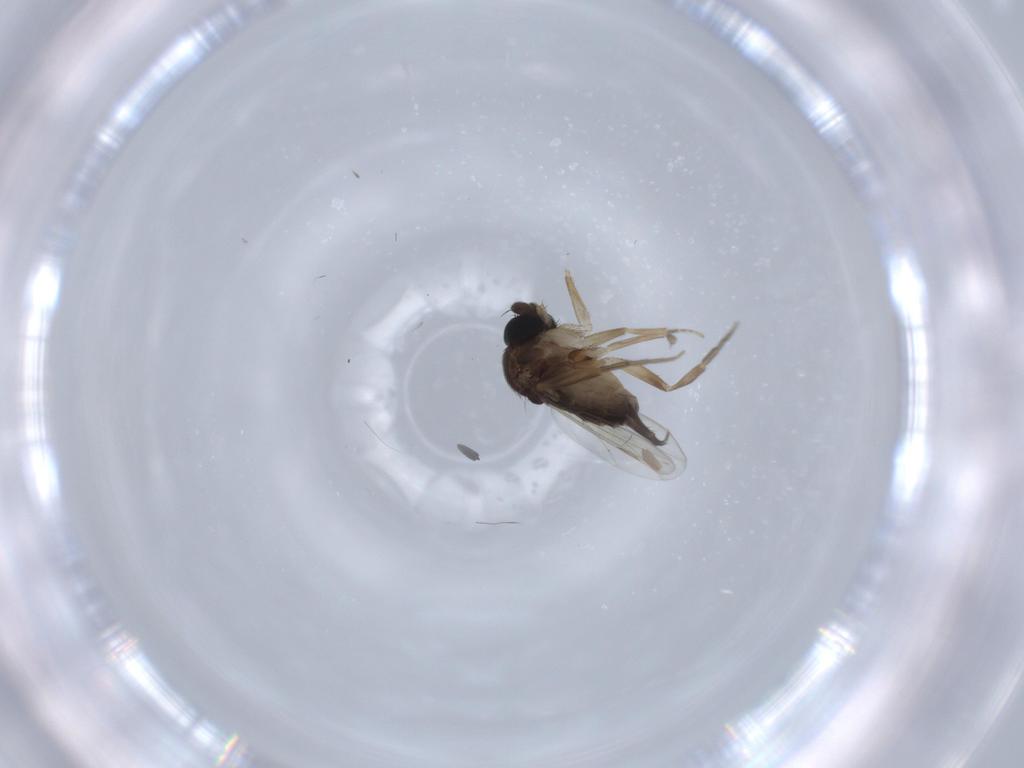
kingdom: Animalia
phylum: Arthropoda
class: Insecta
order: Diptera
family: Phoridae
